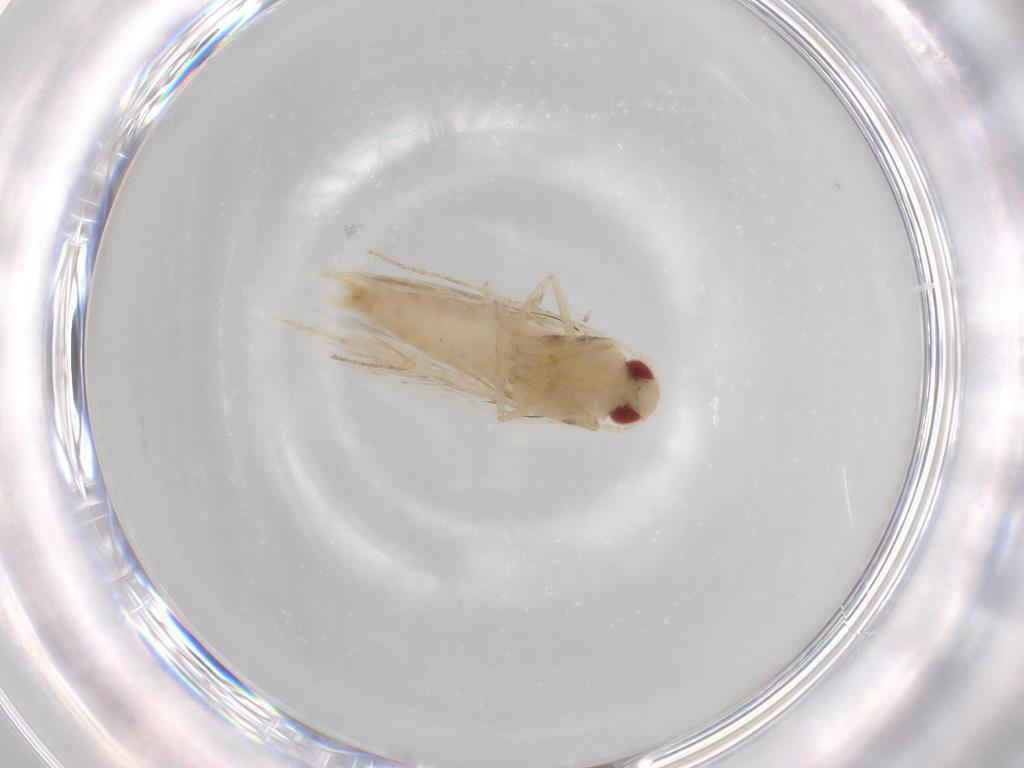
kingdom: Animalia
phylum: Arthropoda
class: Insecta
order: Lepidoptera
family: Cosmopterigidae
